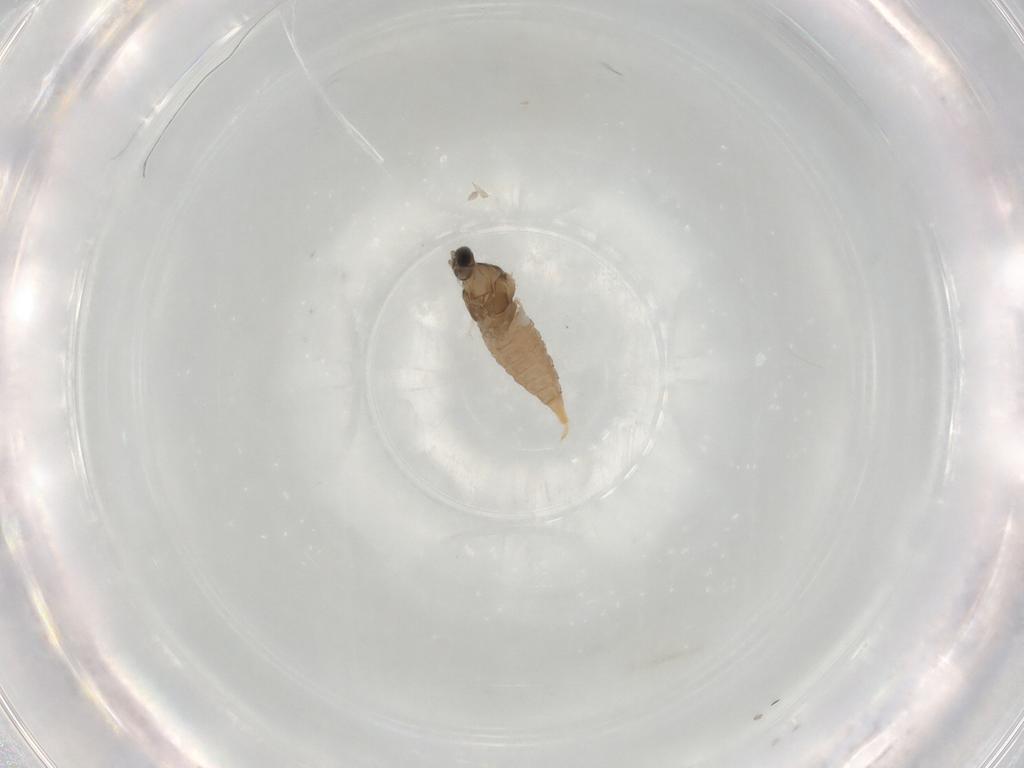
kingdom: Animalia
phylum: Arthropoda
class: Insecta
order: Diptera
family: Cecidomyiidae
